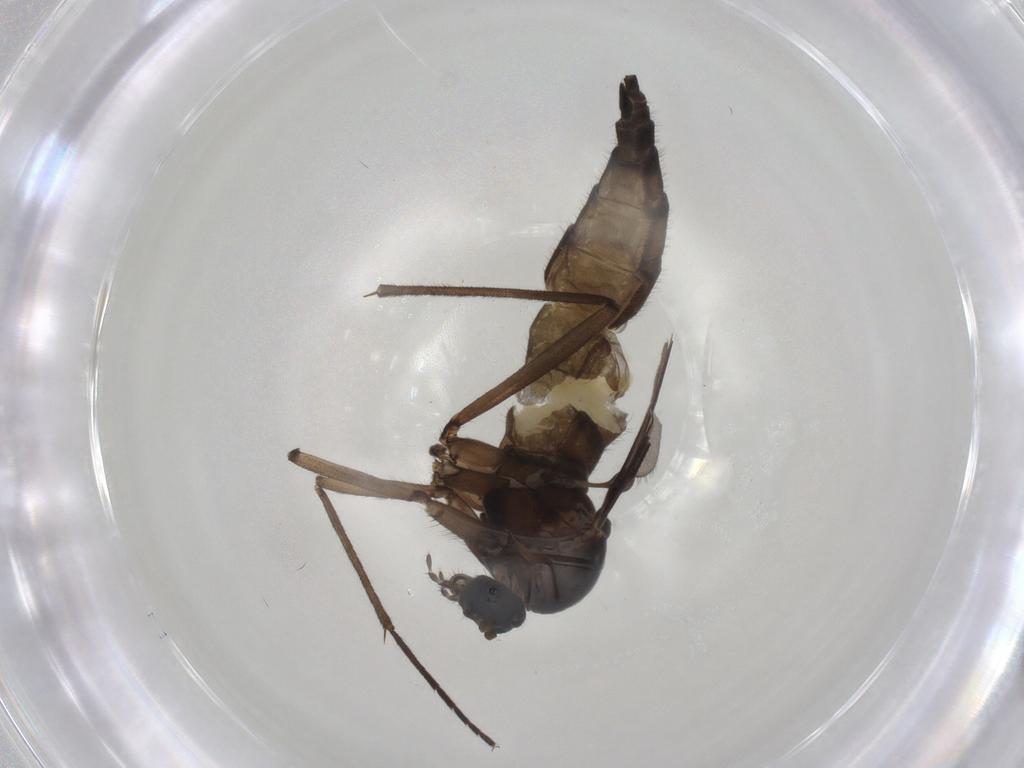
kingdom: Animalia
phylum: Arthropoda
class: Insecta
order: Diptera
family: Sciaridae
